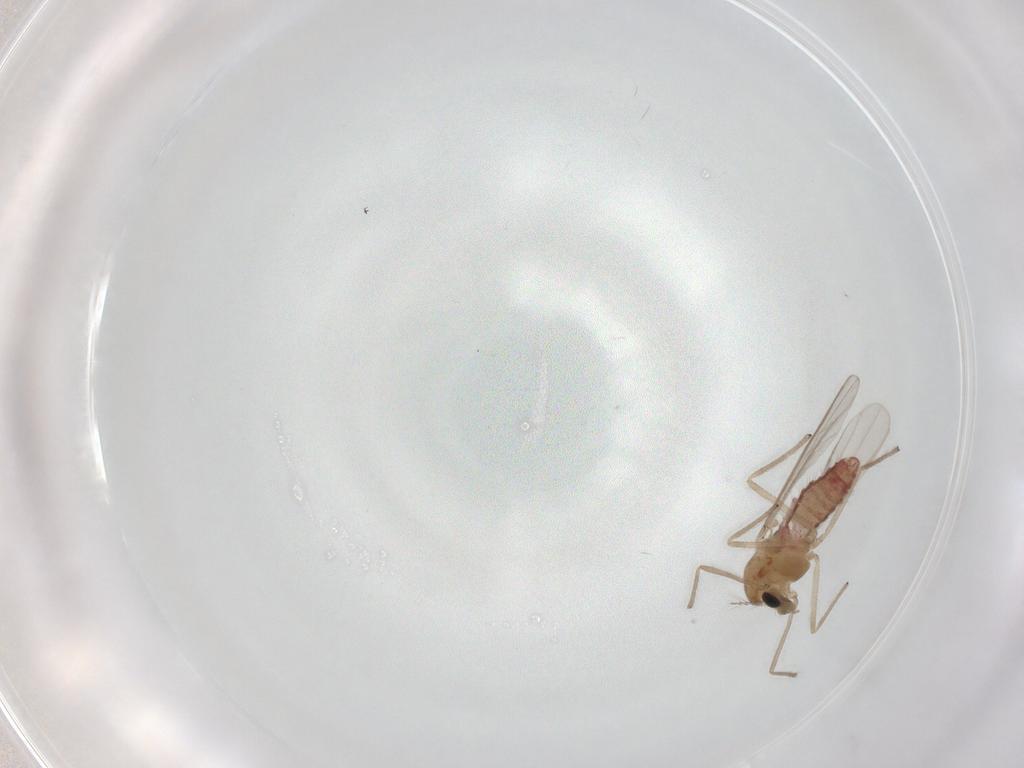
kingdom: Animalia
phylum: Arthropoda
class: Insecta
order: Diptera
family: Chironomidae
